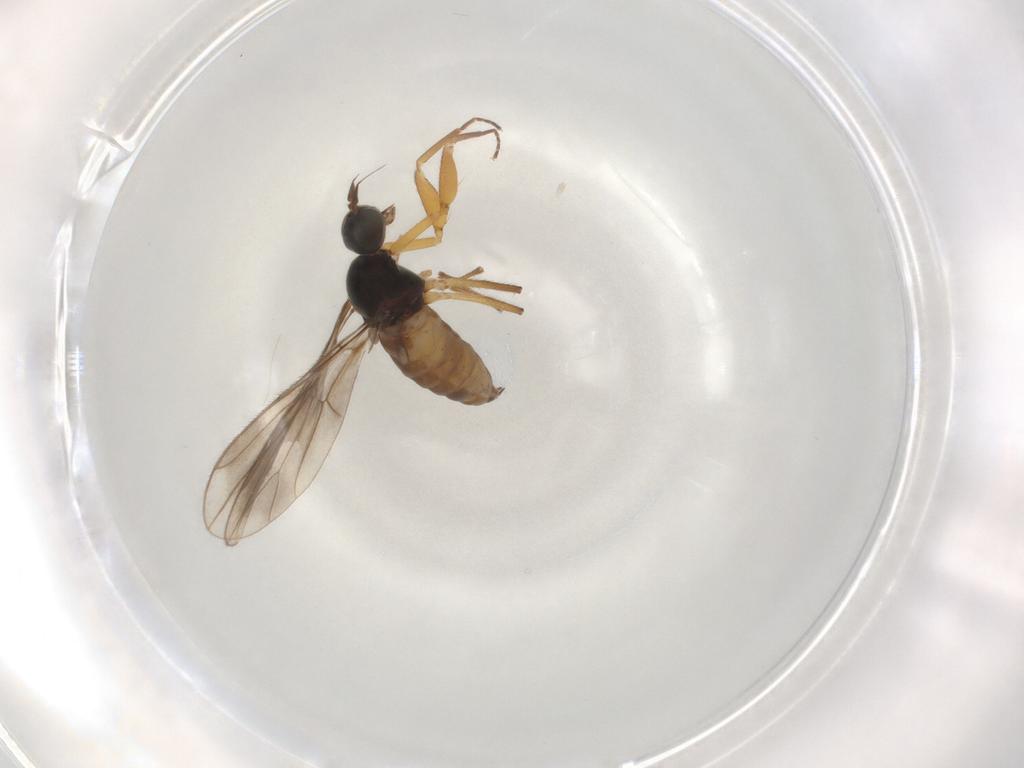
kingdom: Animalia
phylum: Arthropoda
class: Insecta
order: Diptera
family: Empididae
